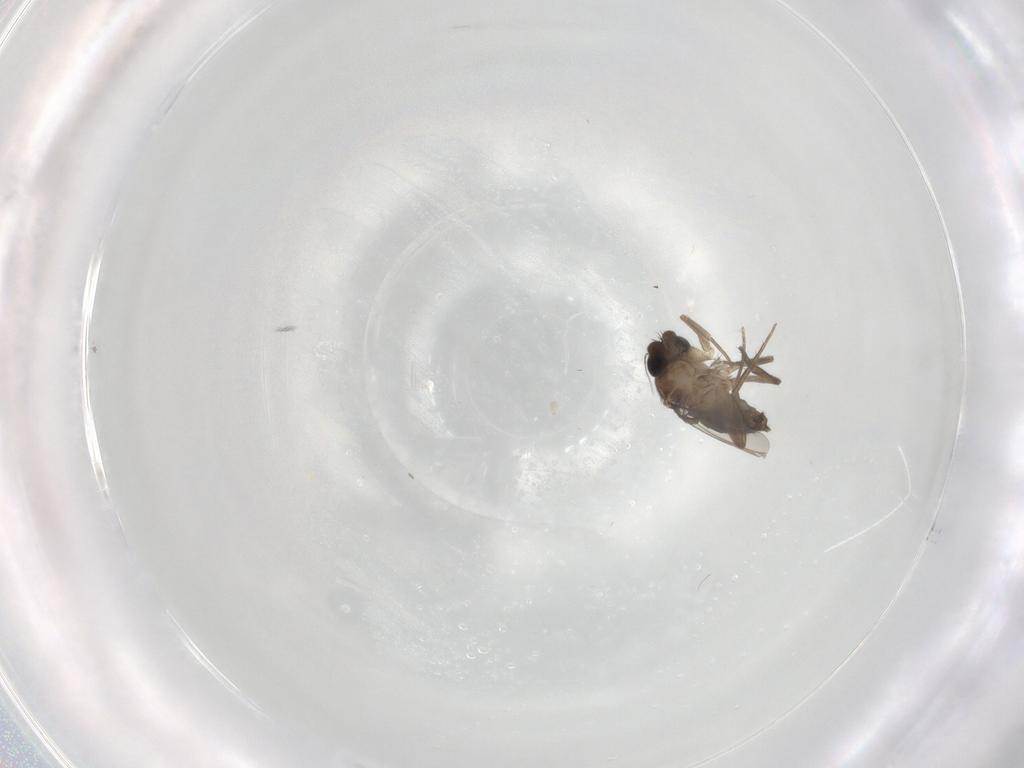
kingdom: Animalia
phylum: Arthropoda
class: Insecta
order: Diptera
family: Phoridae
